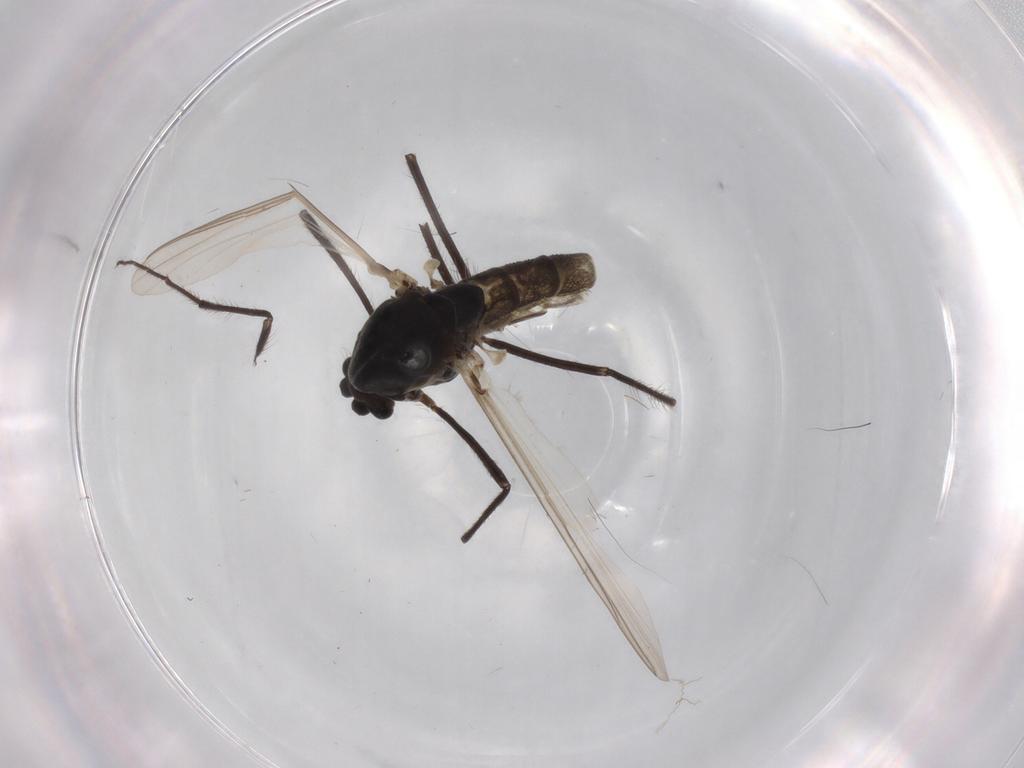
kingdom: Animalia
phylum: Arthropoda
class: Insecta
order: Diptera
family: Chironomidae
